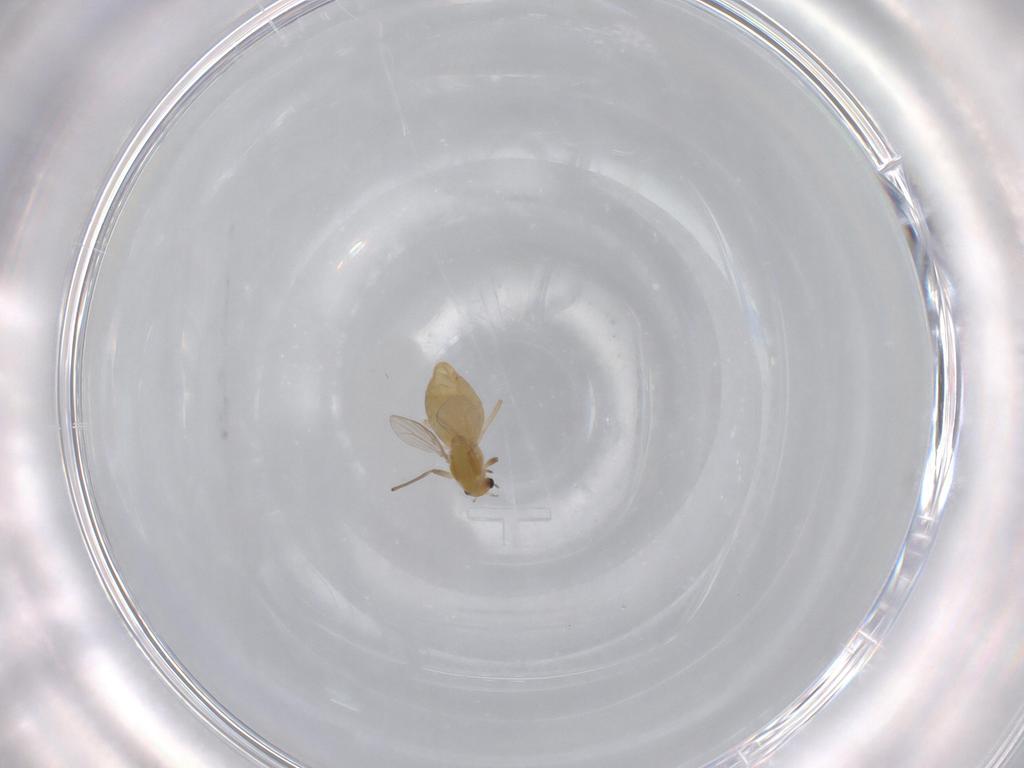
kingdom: Animalia
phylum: Arthropoda
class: Insecta
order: Diptera
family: Chironomidae
